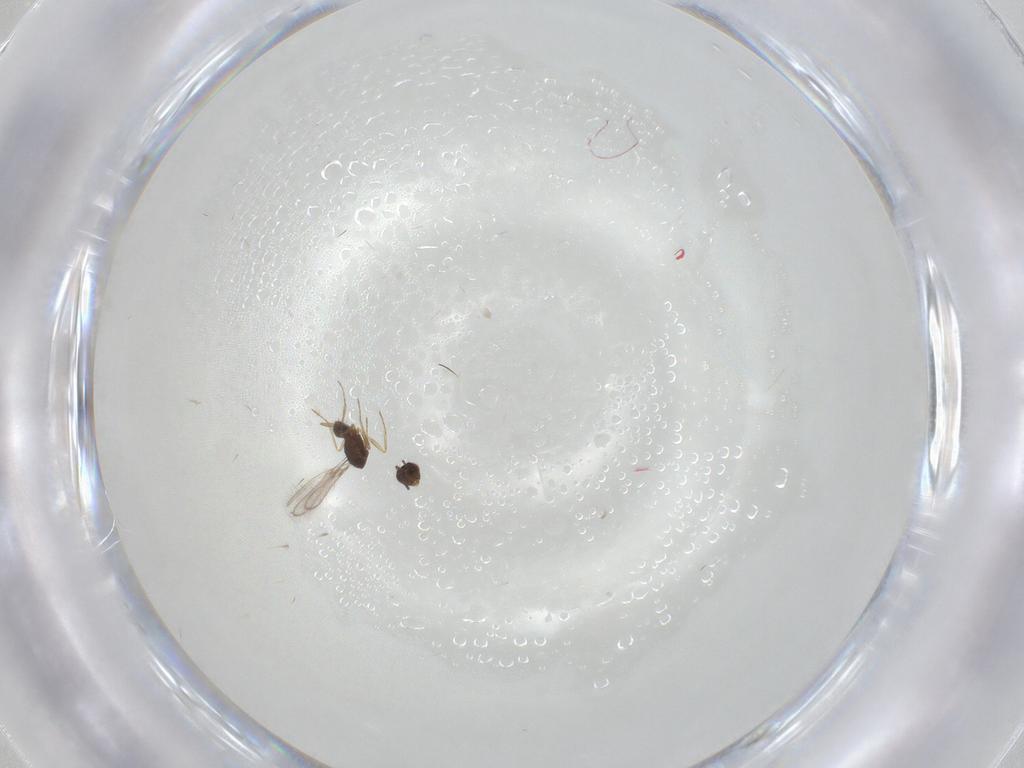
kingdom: Animalia
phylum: Arthropoda
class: Insecta
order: Hymenoptera
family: Mymaridae
